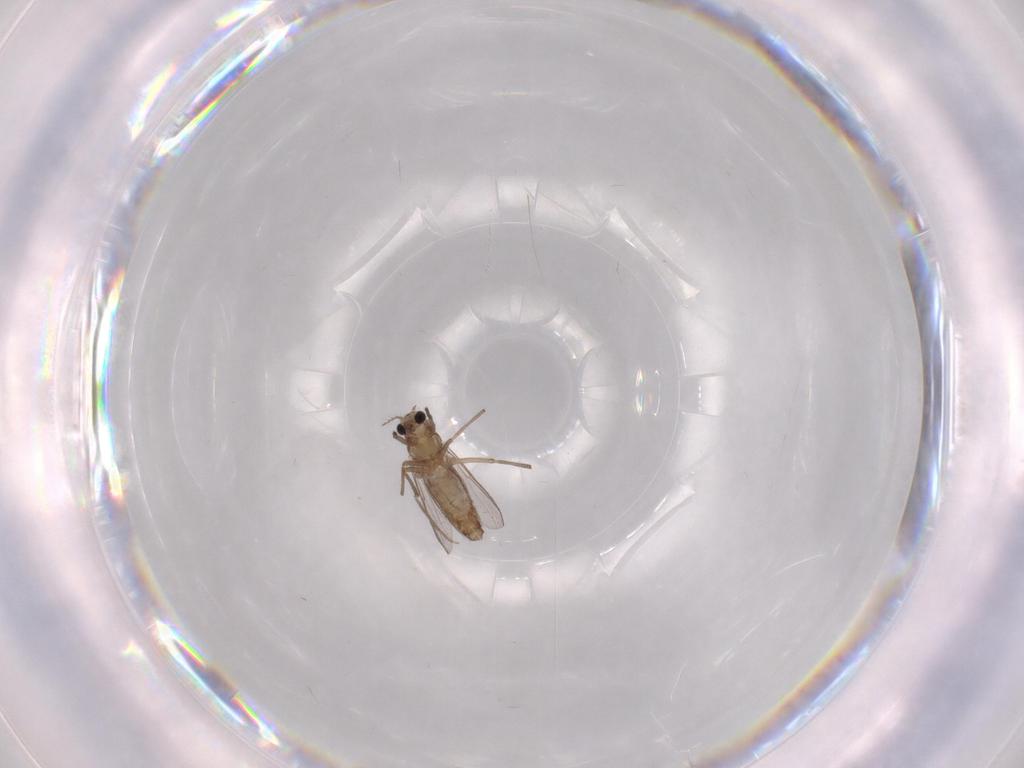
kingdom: Animalia
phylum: Arthropoda
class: Insecta
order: Diptera
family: Chironomidae
